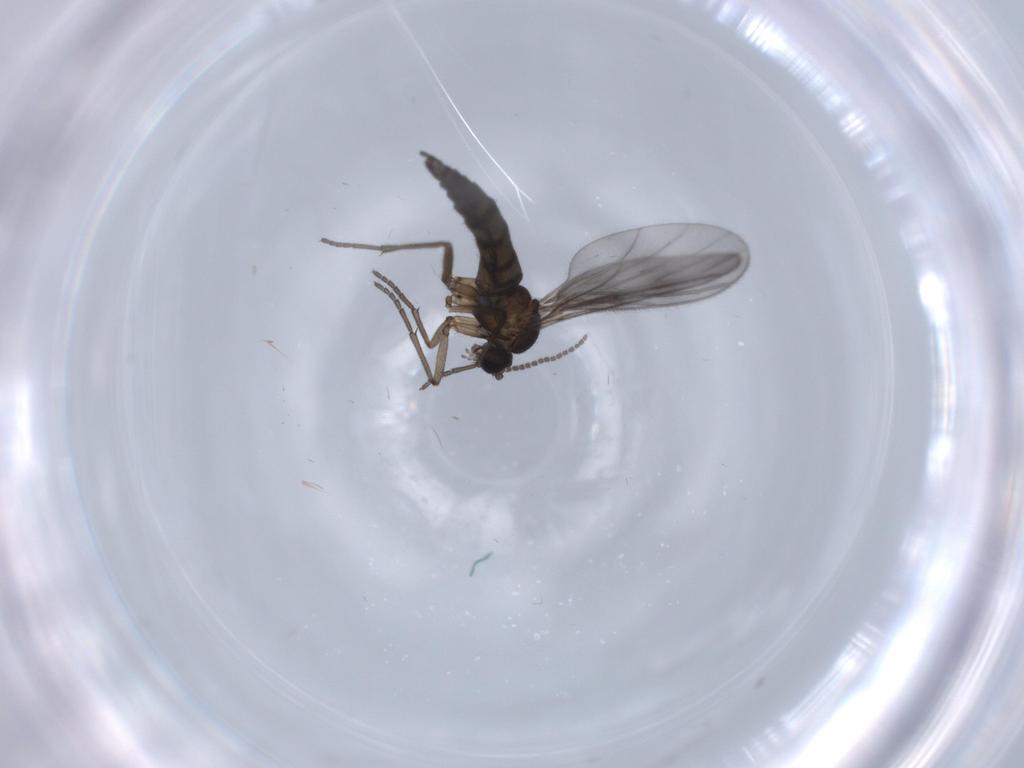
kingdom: Animalia
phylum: Arthropoda
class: Insecta
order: Diptera
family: Sciaridae
